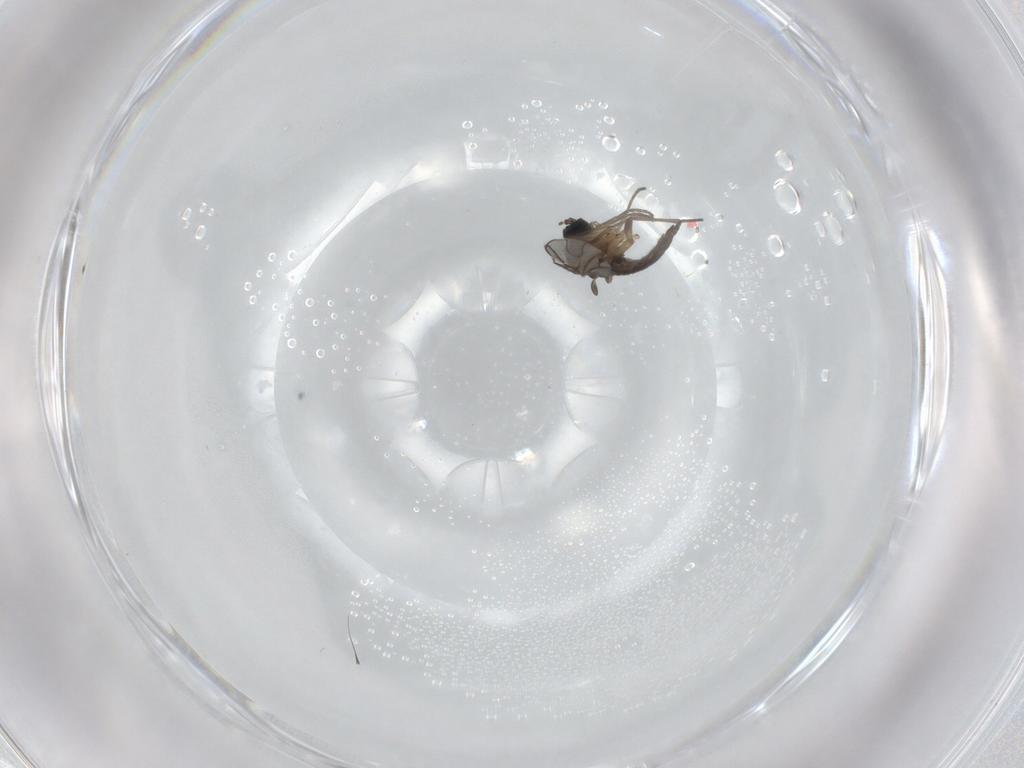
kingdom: Animalia
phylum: Arthropoda
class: Insecta
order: Diptera
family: Sciaridae
